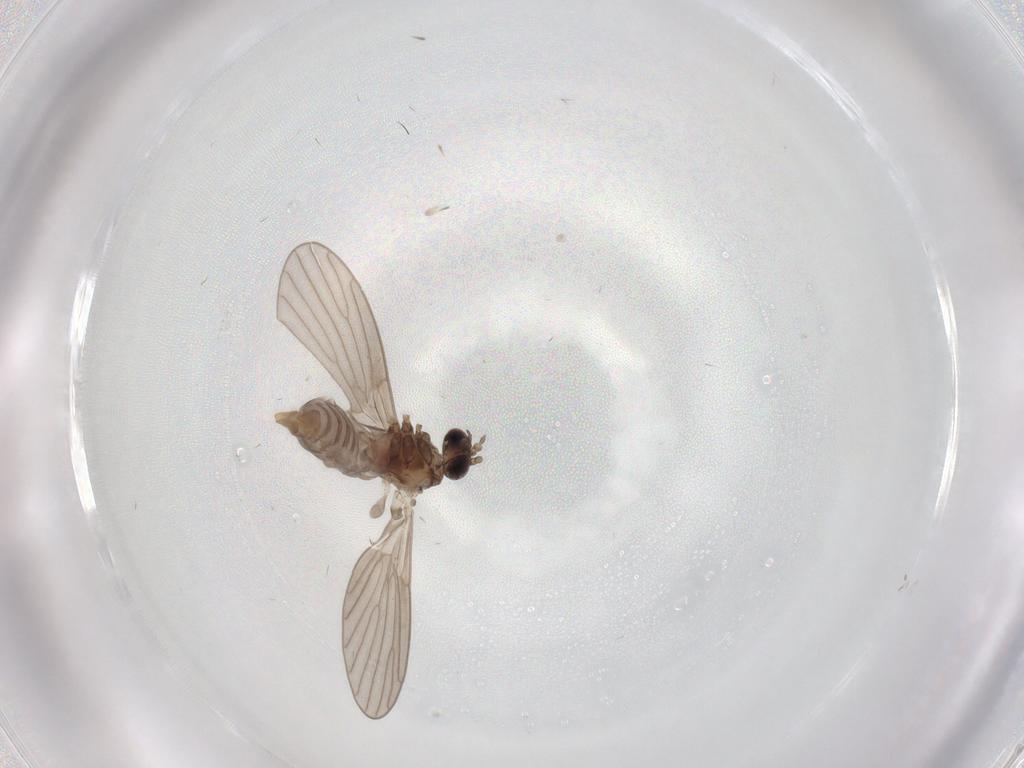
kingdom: Animalia
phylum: Arthropoda
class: Insecta
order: Diptera
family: Psychodidae
